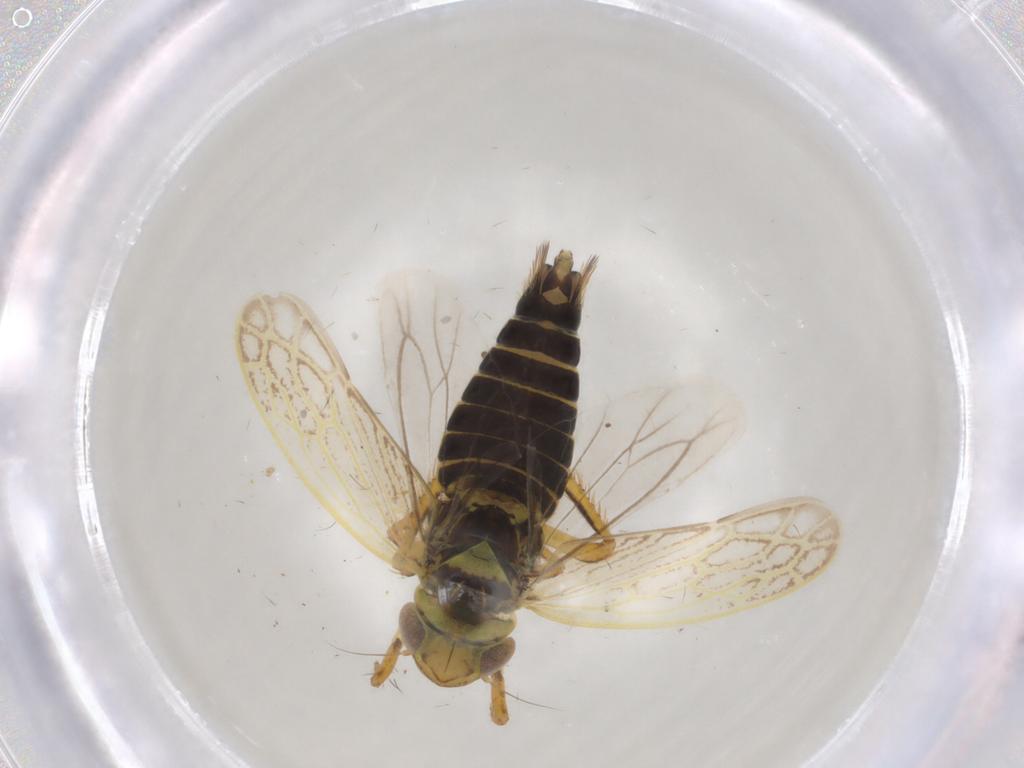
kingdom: Animalia
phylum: Arthropoda
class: Insecta
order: Hemiptera
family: Cicadellidae
